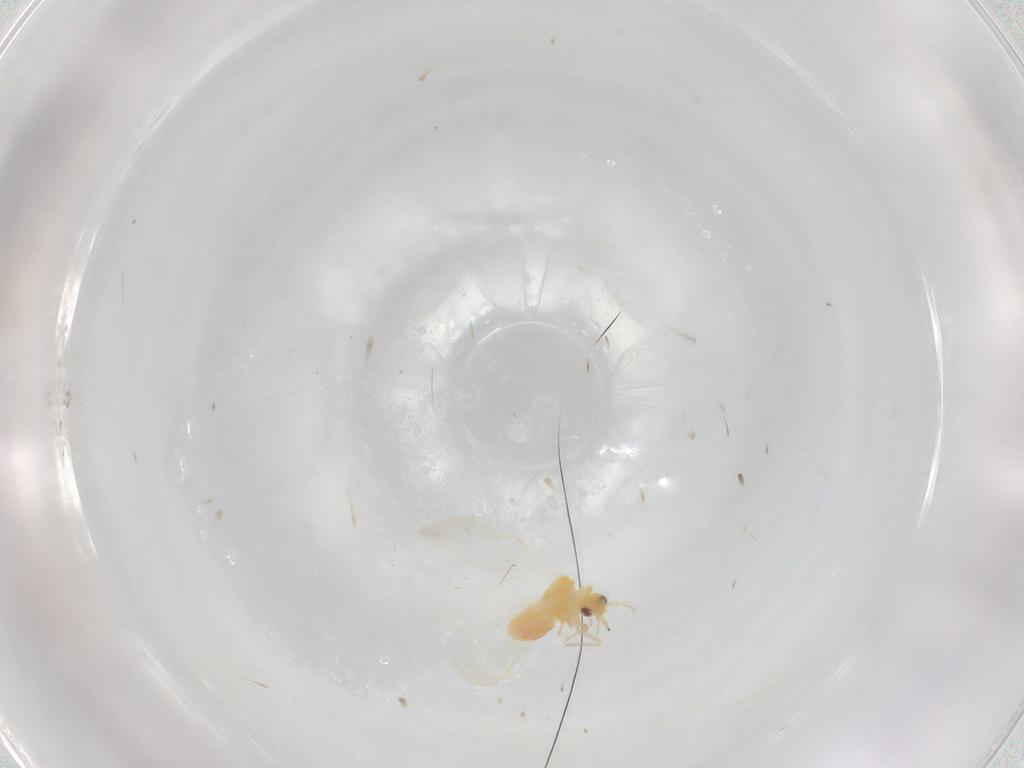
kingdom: Animalia
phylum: Arthropoda
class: Insecta
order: Hemiptera
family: Aleyrodidae
